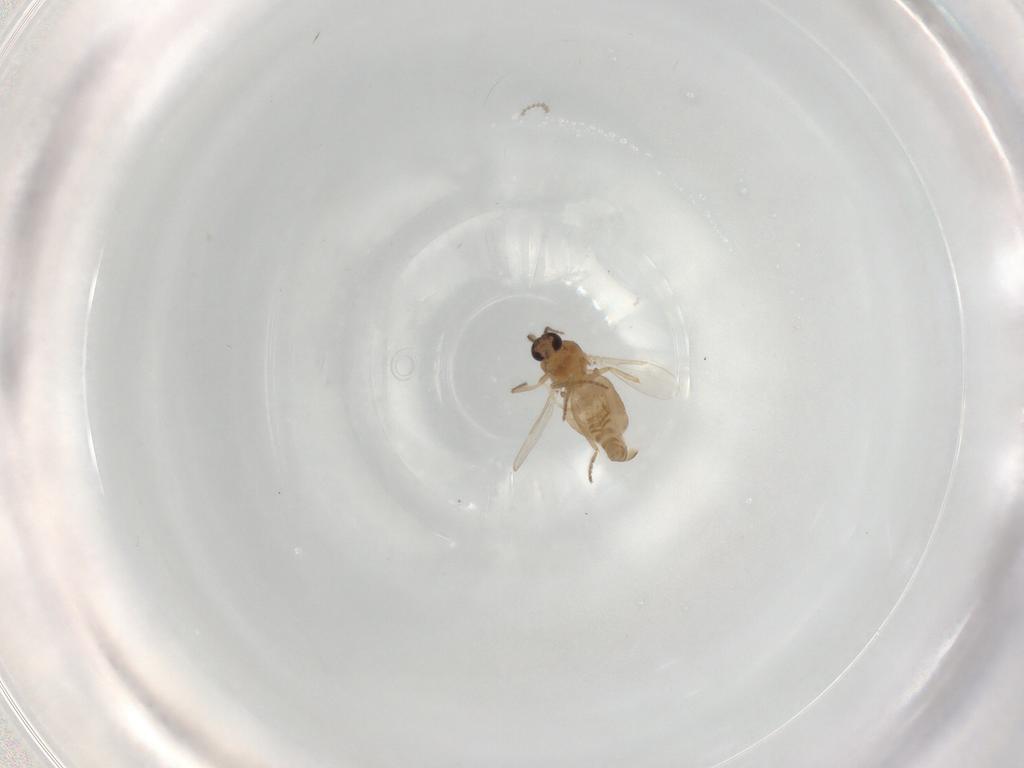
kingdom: Animalia
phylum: Arthropoda
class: Insecta
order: Diptera
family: Ceratopogonidae
